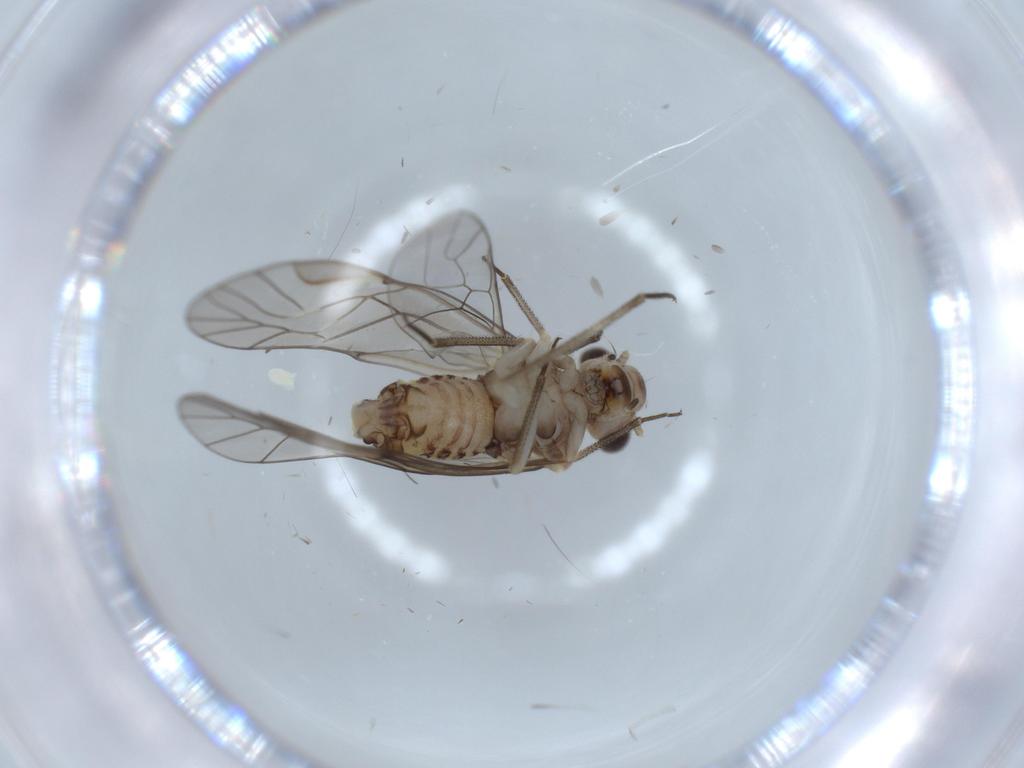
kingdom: Animalia
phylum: Arthropoda
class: Insecta
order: Psocodea
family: Psocidae
